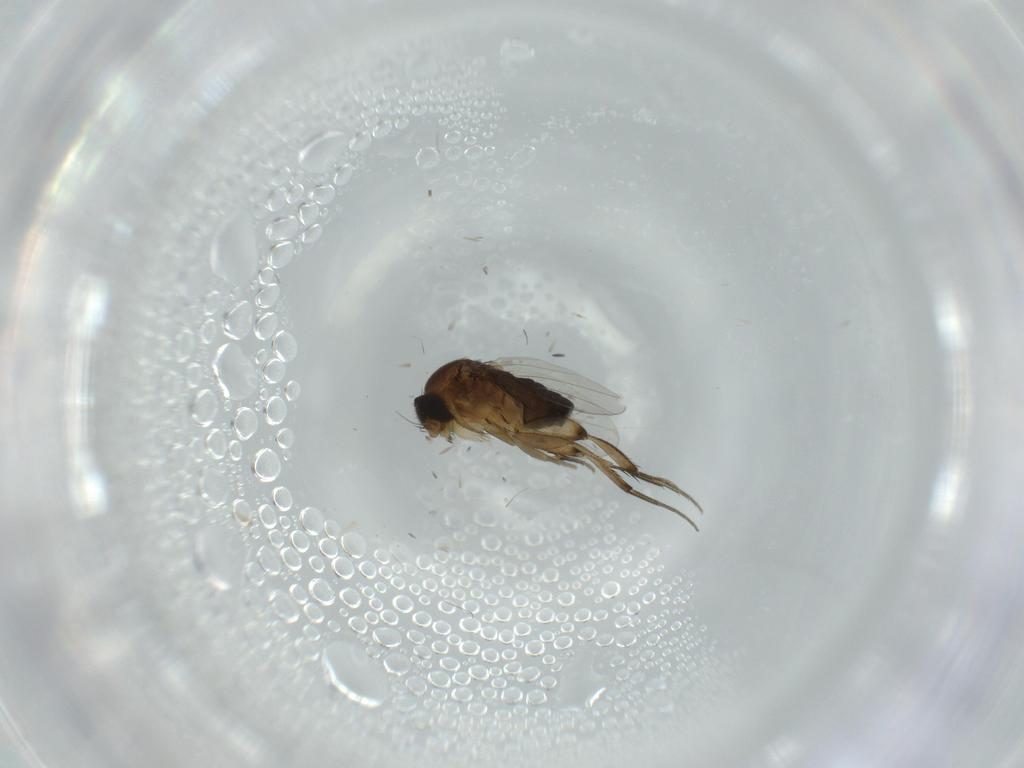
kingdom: Animalia
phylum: Arthropoda
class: Insecta
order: Diptera
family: Phoridae
